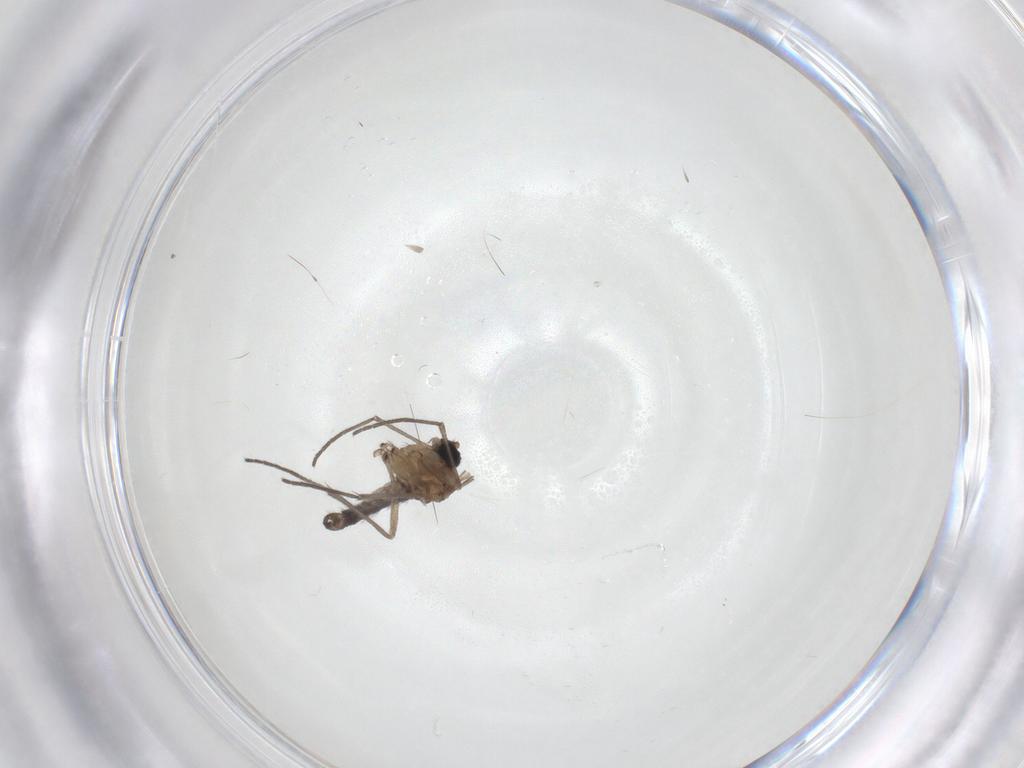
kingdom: Animalia
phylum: Arthropoda
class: Insecta
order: Diptera
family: Sciaridae
